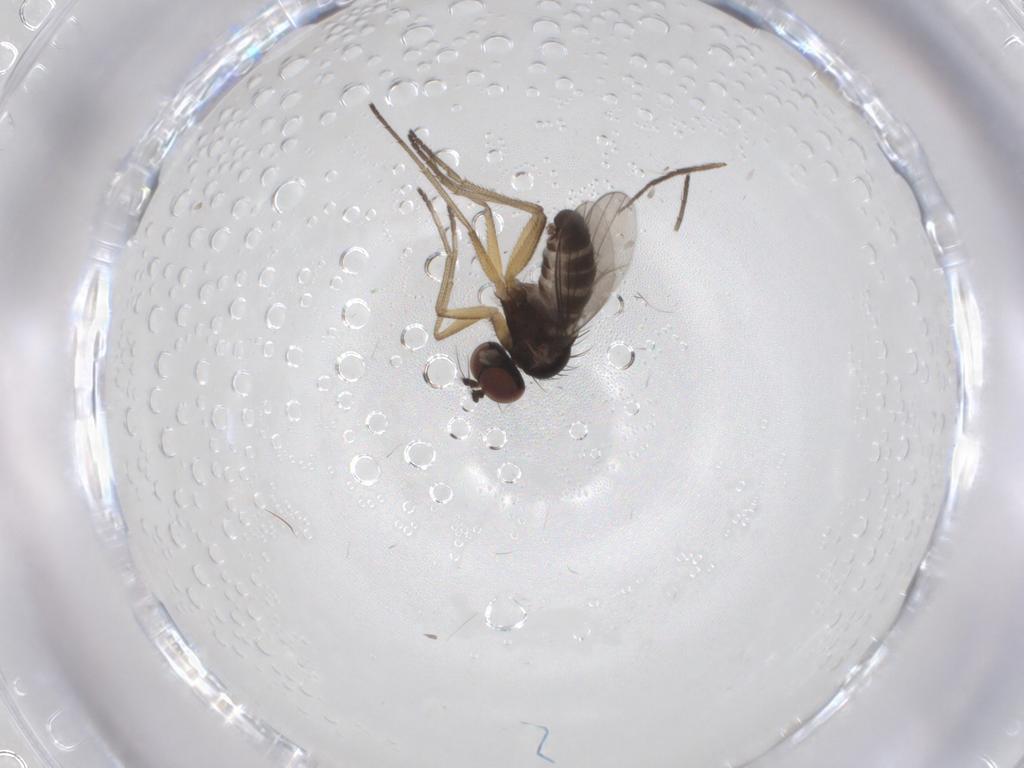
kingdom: Animalia
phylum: Arthropoda
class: Insecta
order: Diptera
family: Dolichopodidae
